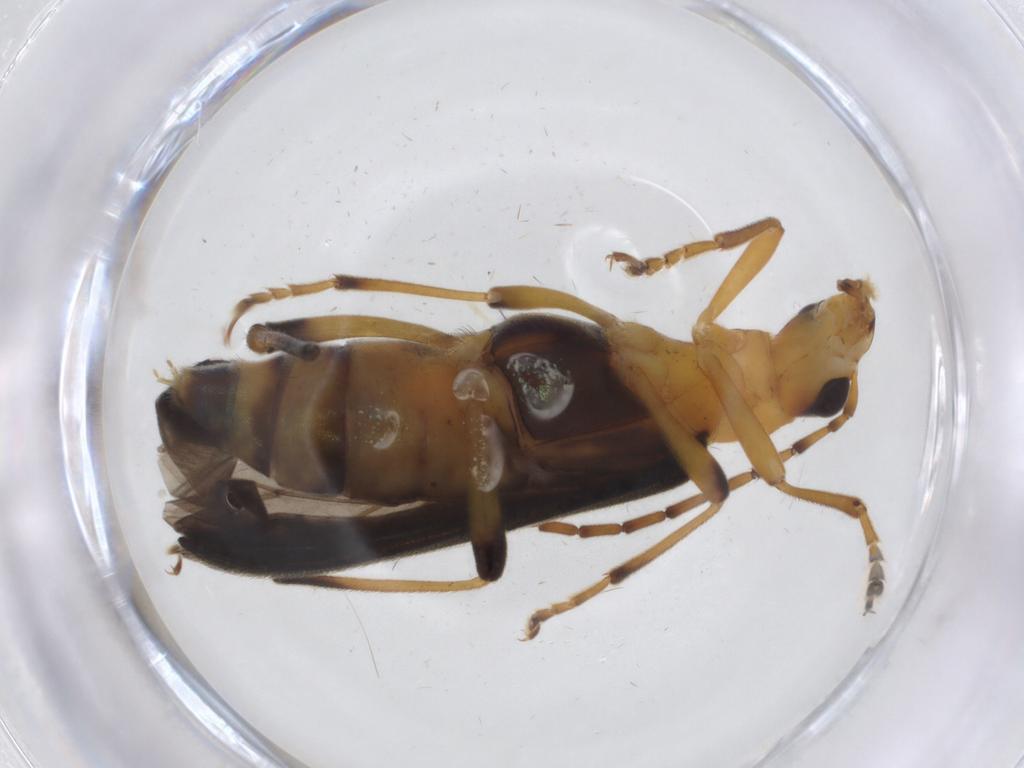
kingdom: Animalia
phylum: Arthropoda
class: Insecta
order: Coleoptera
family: Oedemeridae
